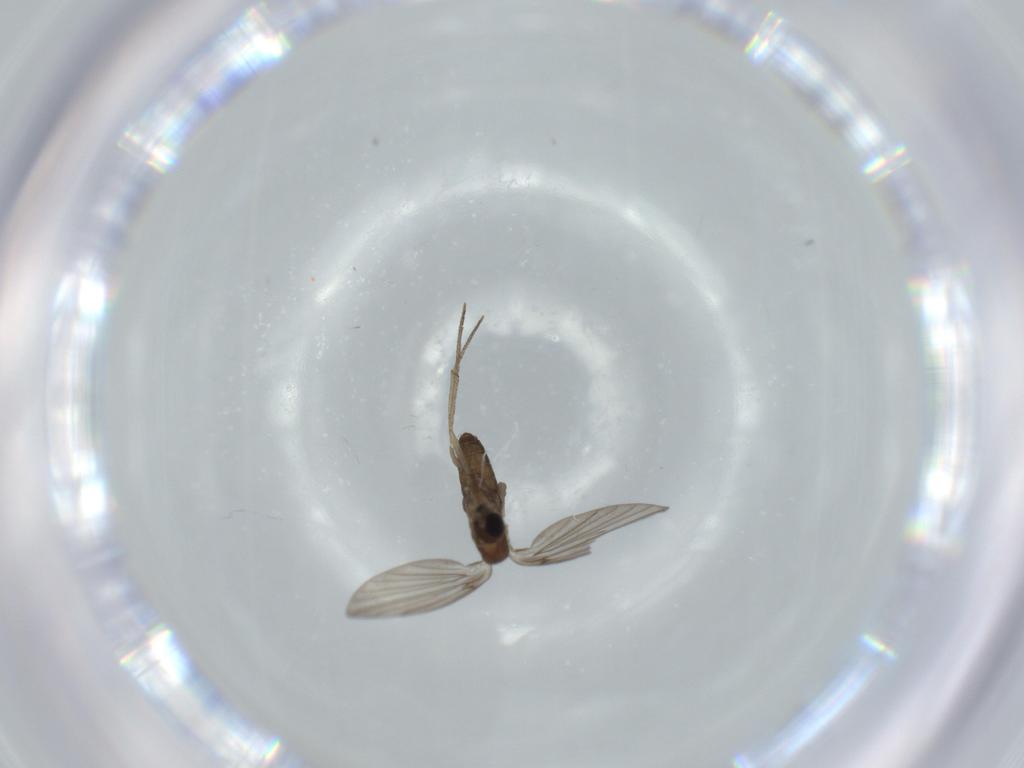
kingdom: Animalia
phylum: Arthropoda
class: Insecta
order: Diptera
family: Psychodidae
